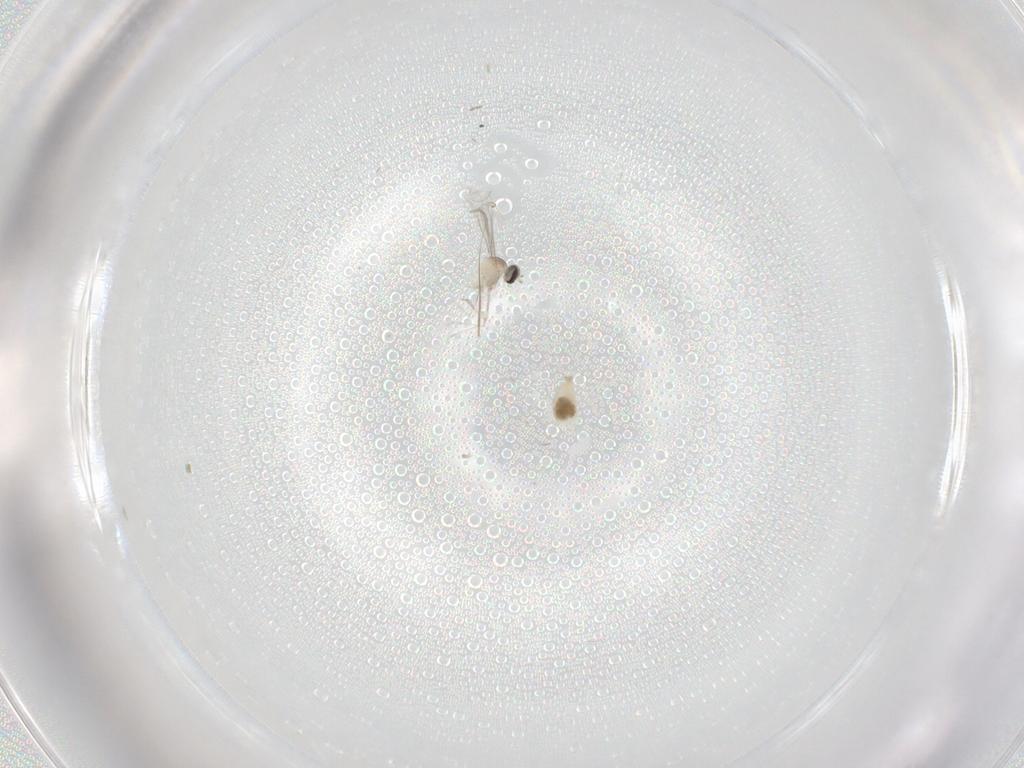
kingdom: Animalia
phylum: Arthropoda
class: Insecta
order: Diptera
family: Cecidomyiidae
